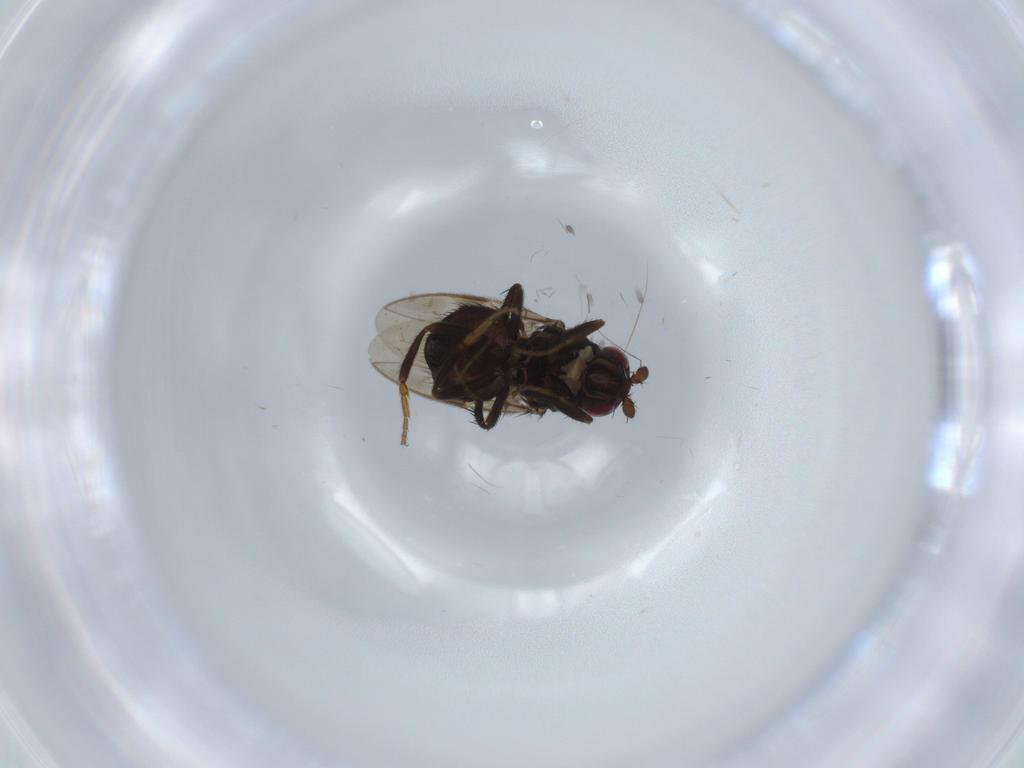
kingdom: Animalia
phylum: Arthropoda
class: Insecta
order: Diptera
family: Sphaeroceridae
